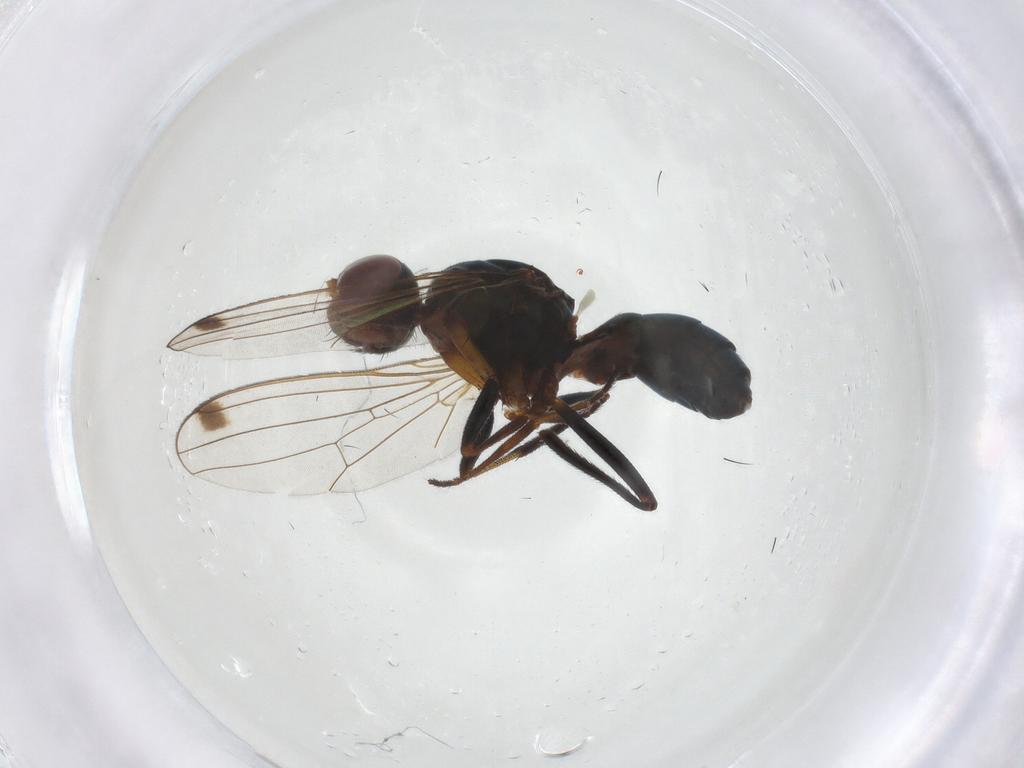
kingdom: Animalia
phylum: Arthropoda
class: Insecta
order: Diptera
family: Sepsidae
